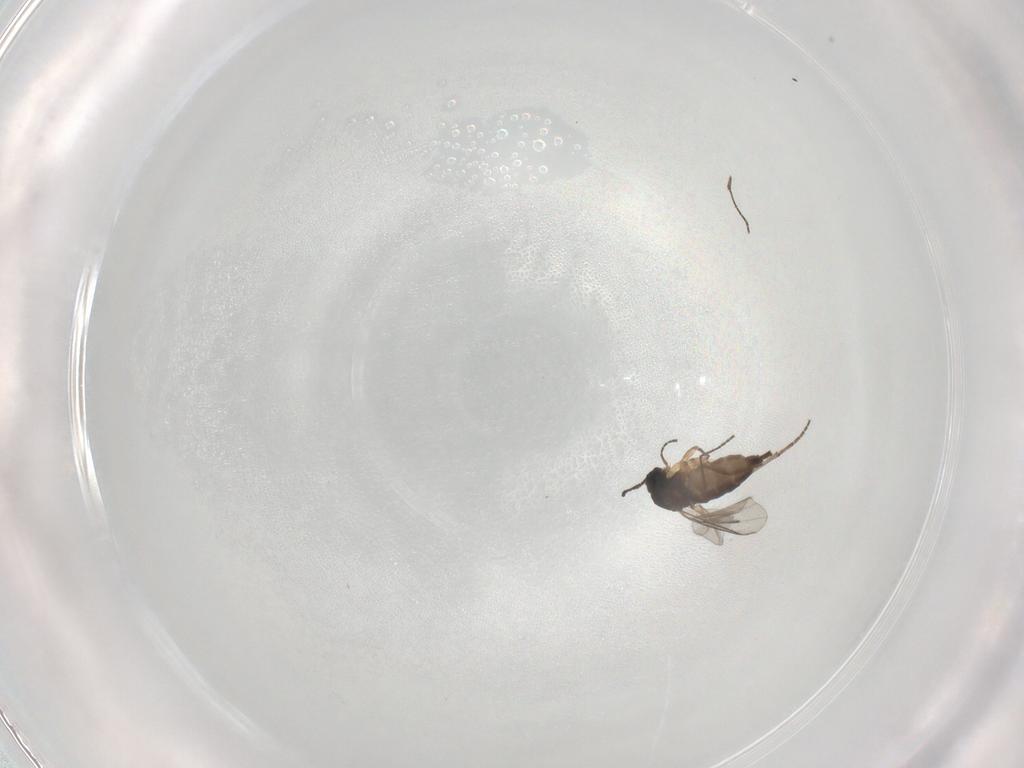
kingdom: Animalia
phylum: Arthropoda
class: Insecta
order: Diptera
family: Sciaridae
